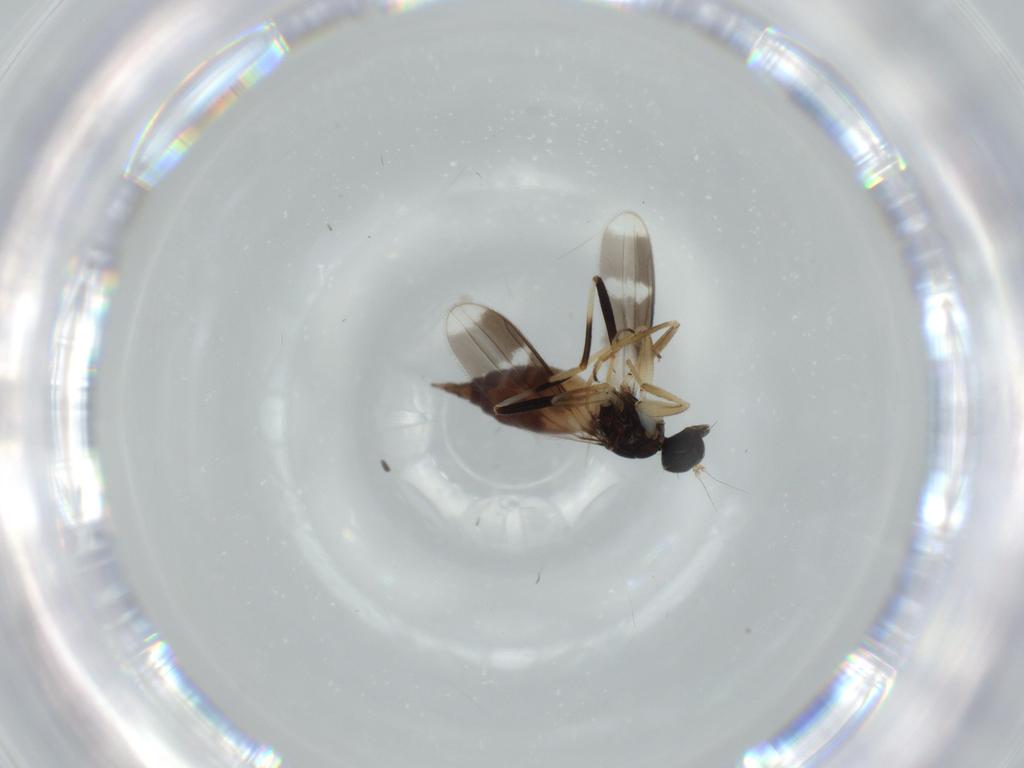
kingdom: Animalia
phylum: Arthropoda
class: Insecta
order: Diptera
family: Hybotidae
